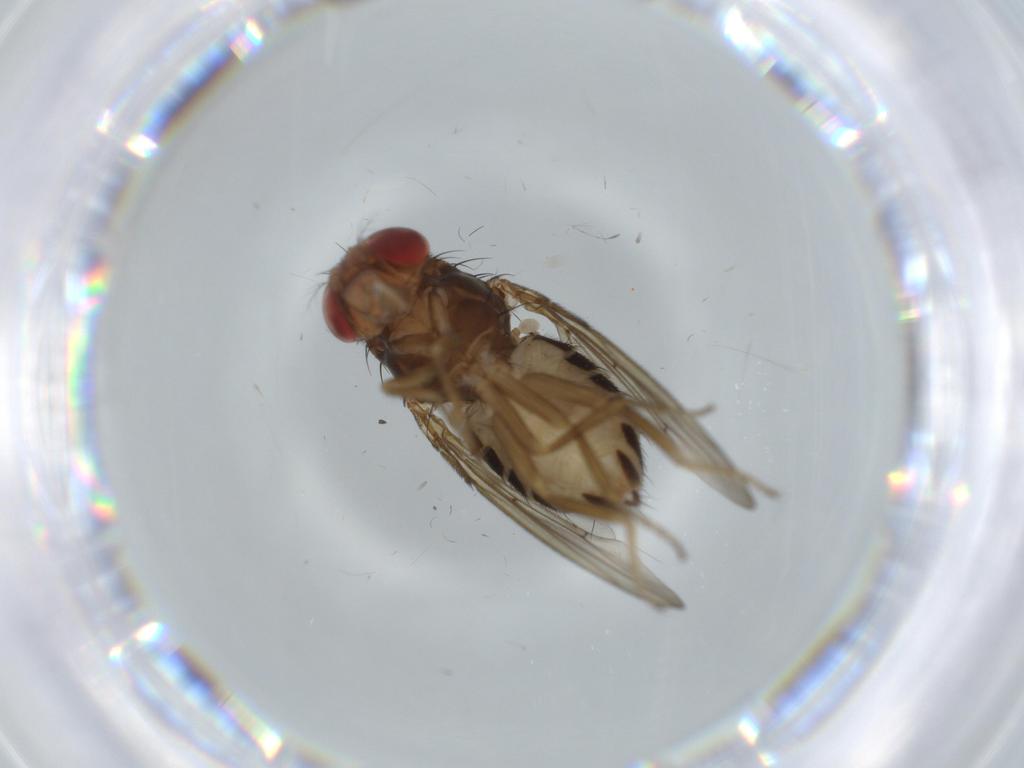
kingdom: Animalia
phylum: Arthropoda
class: Insecta
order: Diptera
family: Drosophilidae
